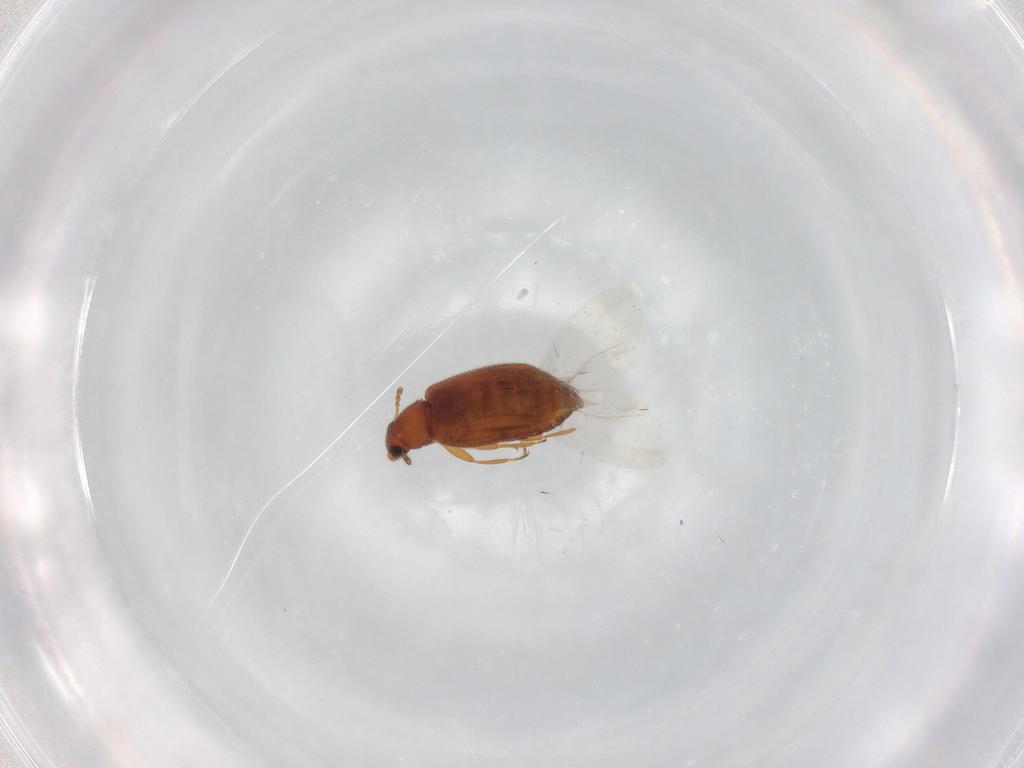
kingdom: Animalia
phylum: Arthropoda
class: Insecta
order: Coleoptera
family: Latridiidae
